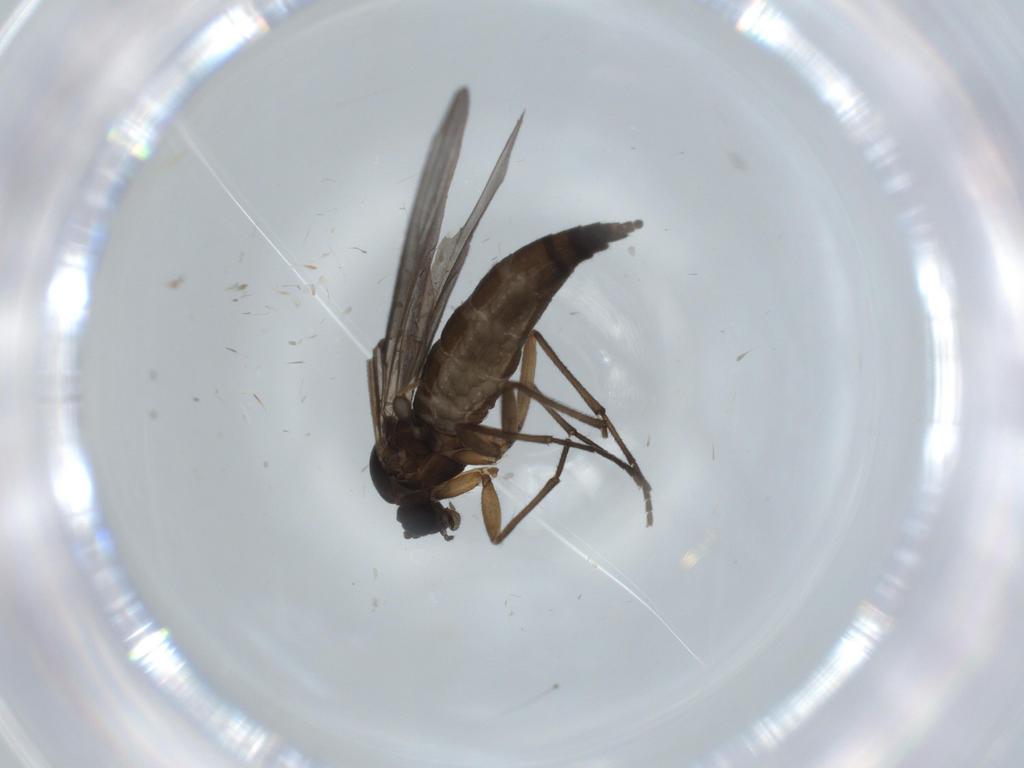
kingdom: Animalia
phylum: Arthropoda
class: Insecta
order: Diptera
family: Sciaridae
